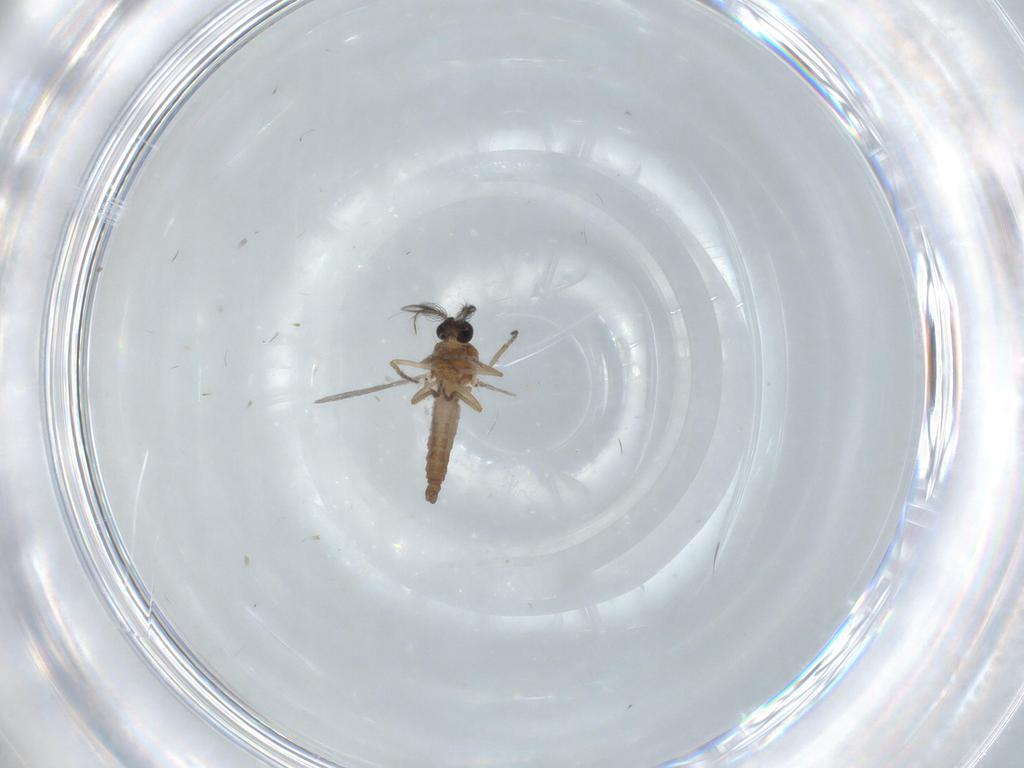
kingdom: Animalia
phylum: Arthropoda
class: Insecta
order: Diptera
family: Ceratopogonidae
